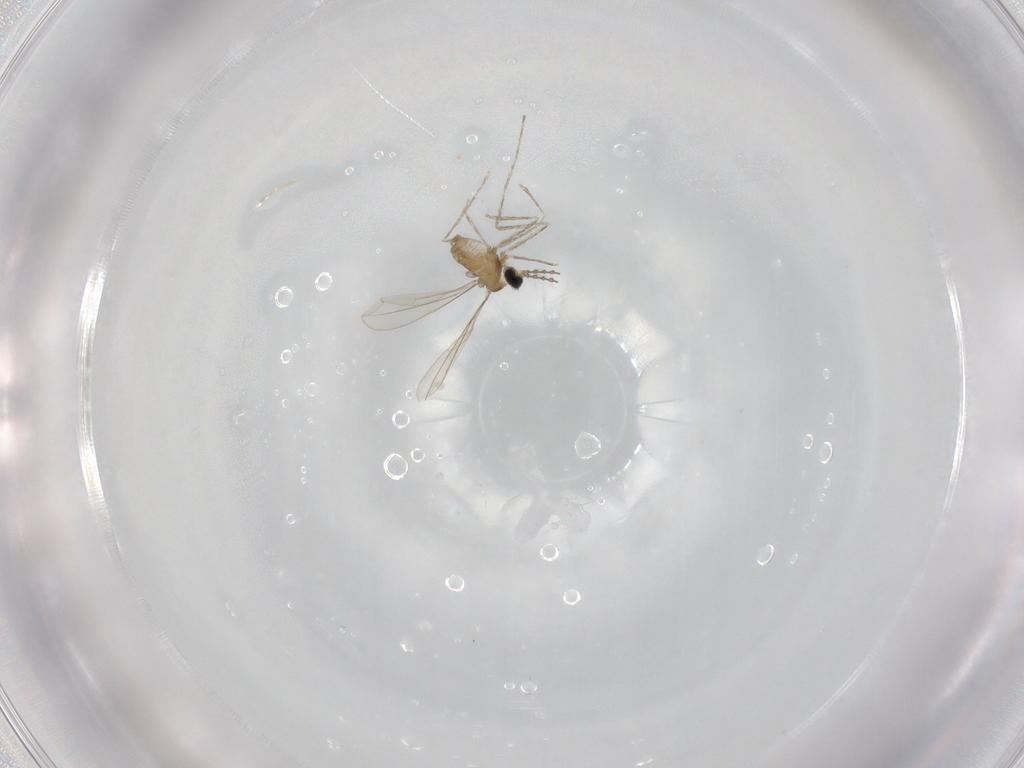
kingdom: Animalia
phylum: Arthropoda
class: Insecta
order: Diptera
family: Cecidomyiidae
